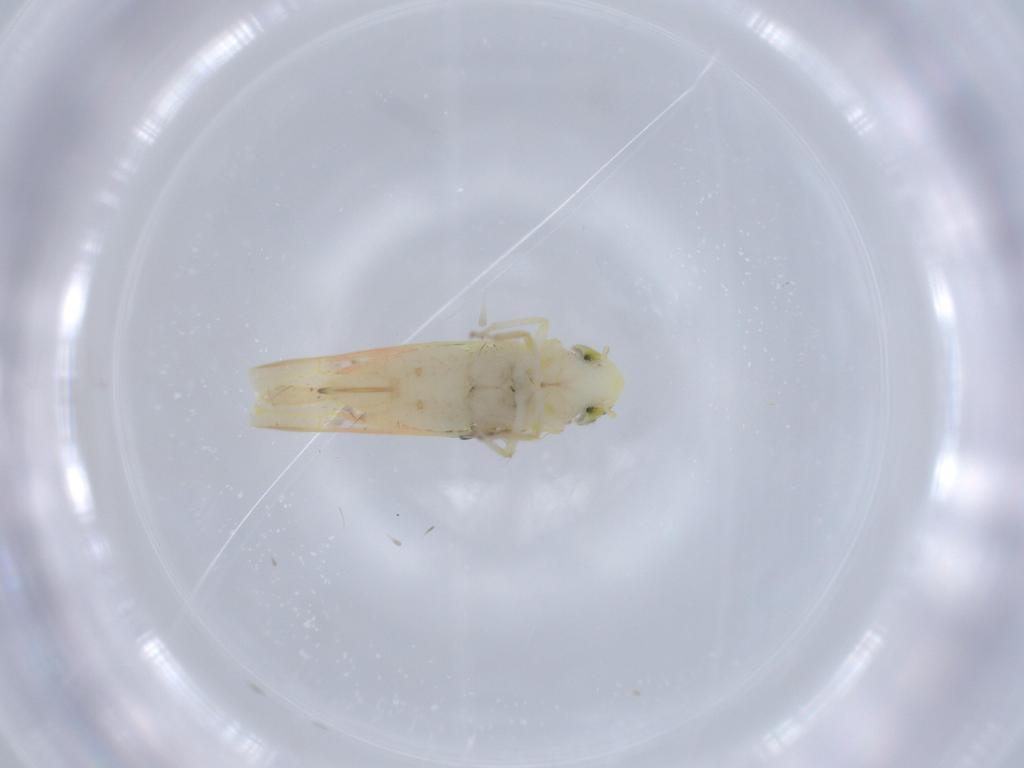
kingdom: Animalia
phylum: Arthropoda
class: Insecta
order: Hemiptera
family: Cicadellidae
